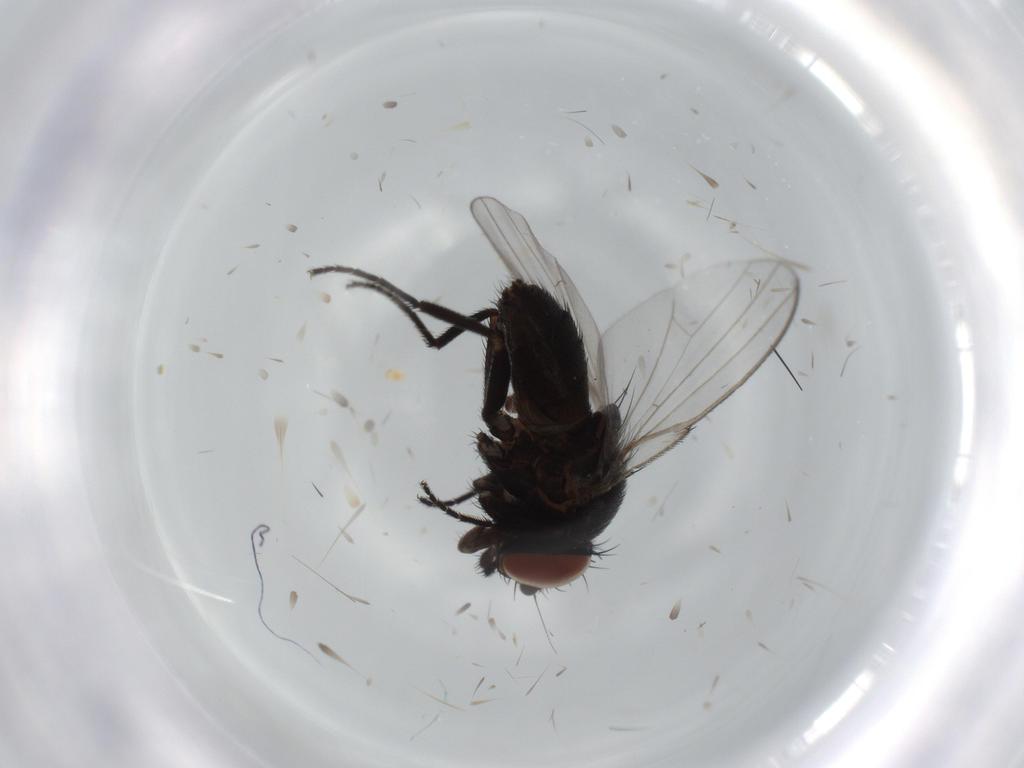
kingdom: Animalia
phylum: Arthropoda
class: Insecta
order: Diptera
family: Milichiidae
